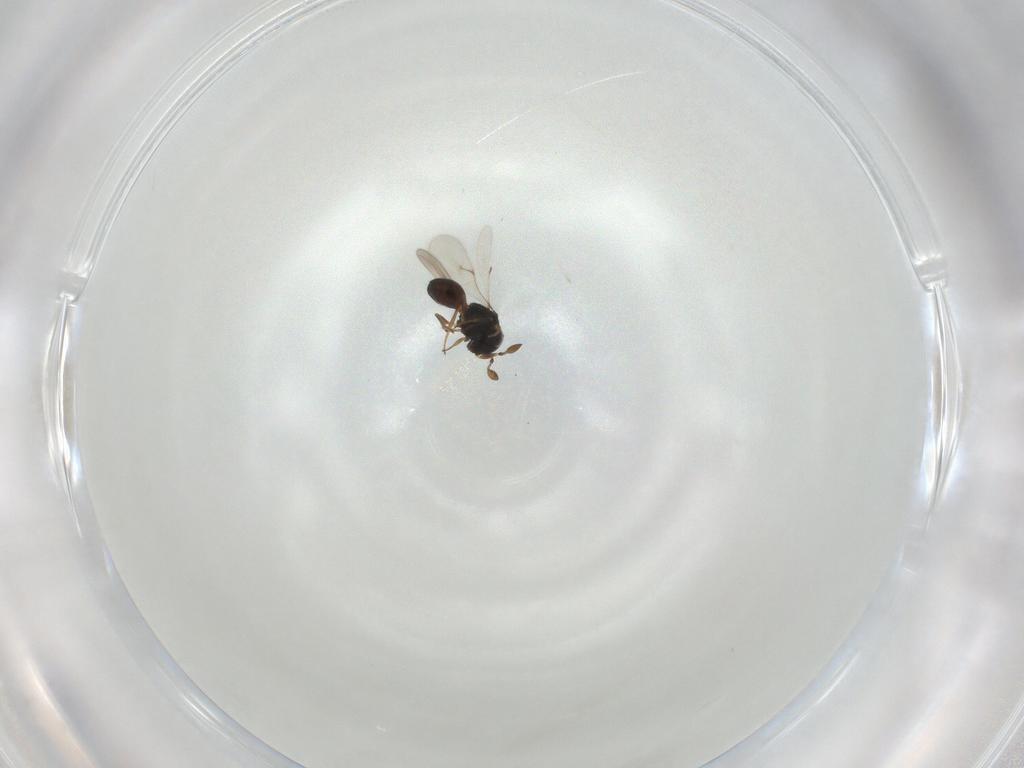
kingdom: Animalia
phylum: Arthropoda
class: Insecta
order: Hymenoptera
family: Scelionidae
